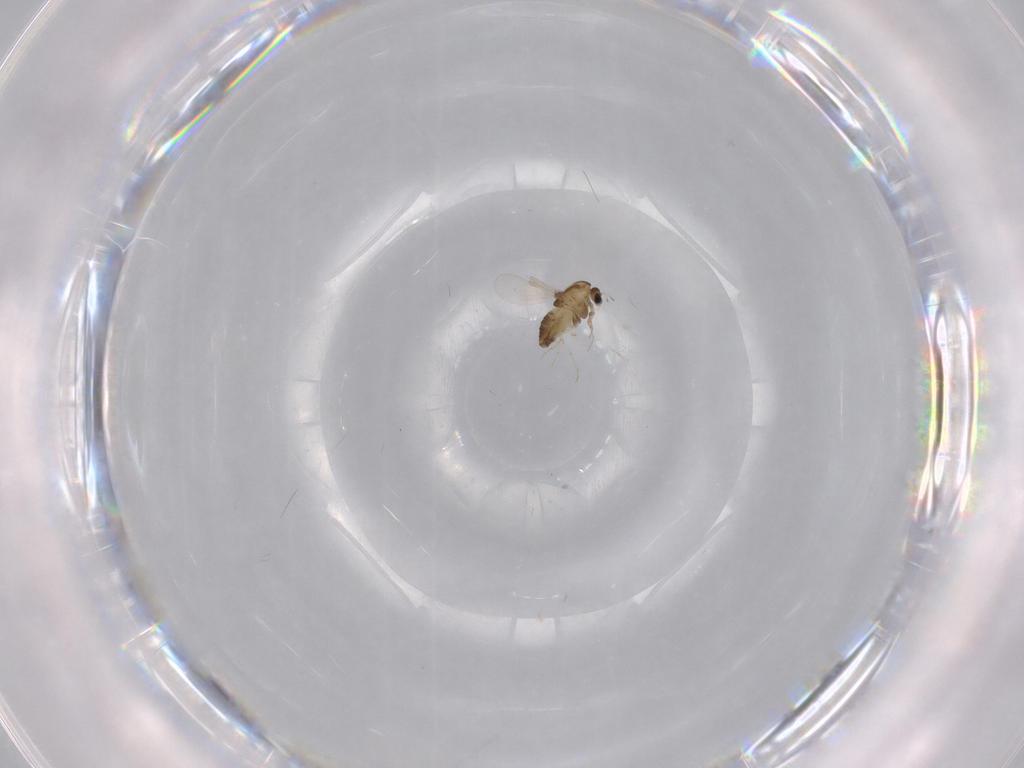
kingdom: Animalia
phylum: Arthropoda
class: Insecta
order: Diptera
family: Chironomidae
